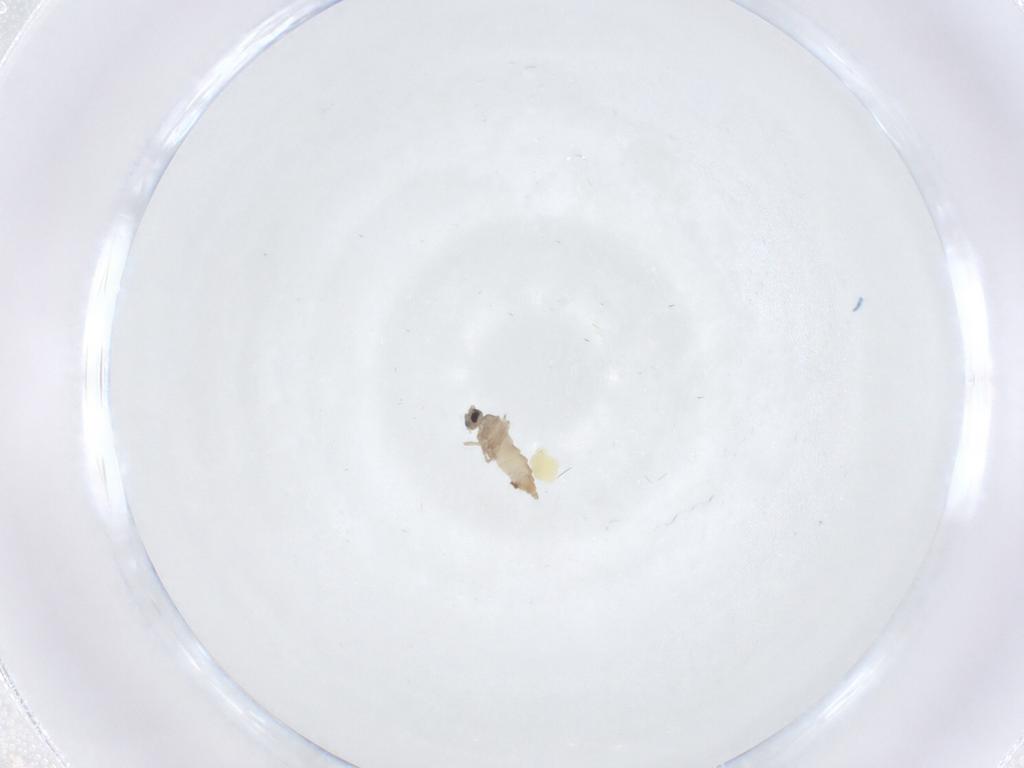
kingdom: Animalia
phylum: Arthropoda
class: Insecta
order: Diptera
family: Cecidomyiidae
